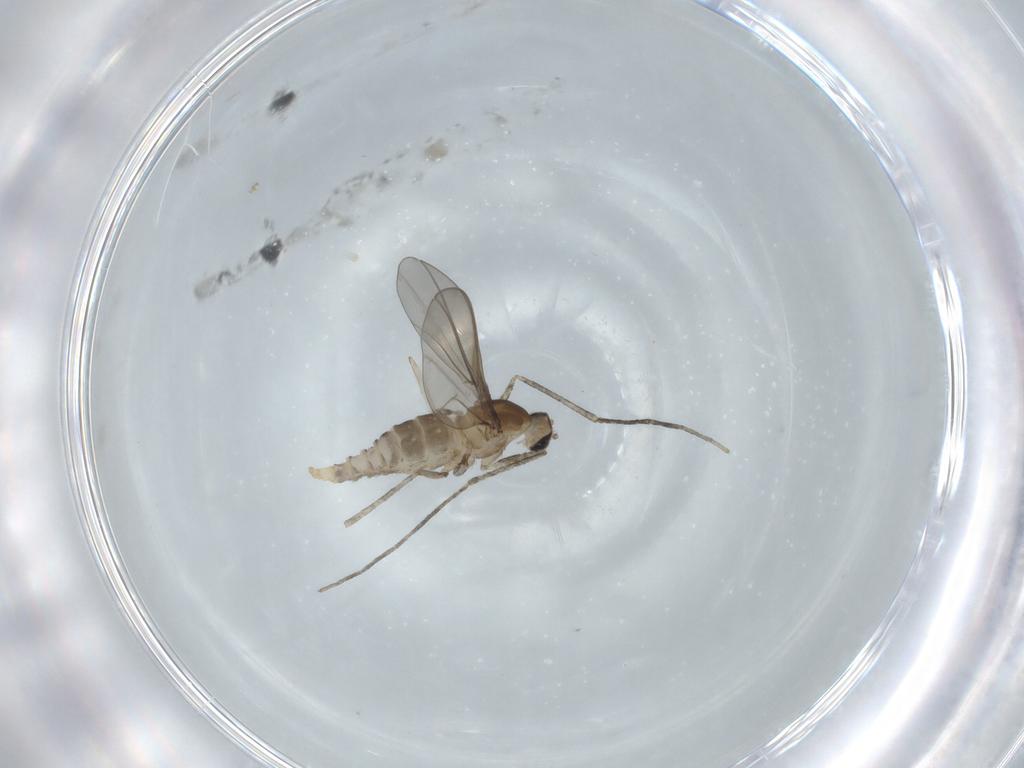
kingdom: Animalia
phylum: Arthropoda
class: Insecta
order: Diptera
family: Cecidomyiidae
